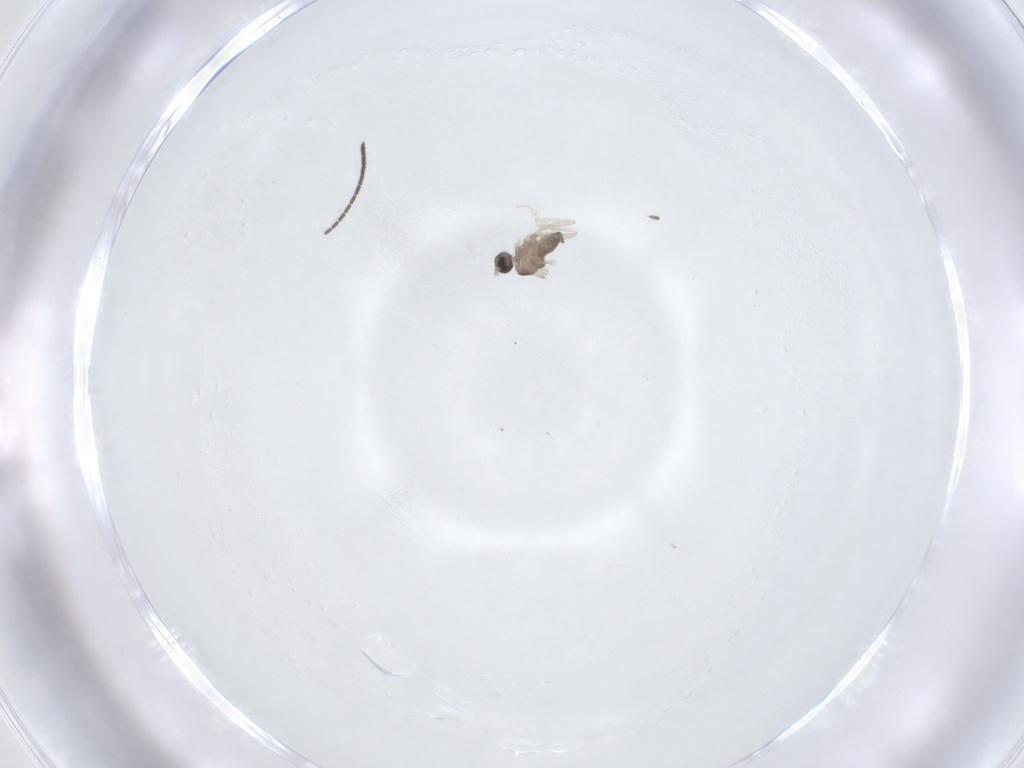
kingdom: Animalia
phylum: Arthropoda
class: Insecta
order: Diptera
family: Cecidomyiidae
